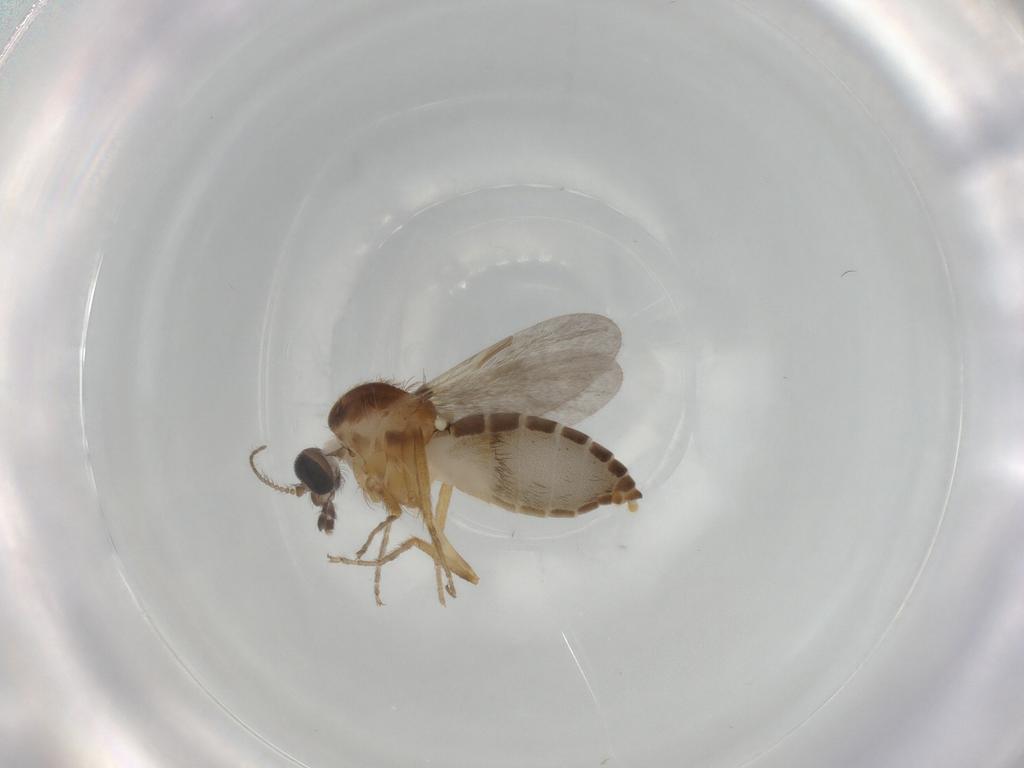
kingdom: Animalia
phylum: Arthropoda
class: Insecta
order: Diptera
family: Ceratopogonidae
